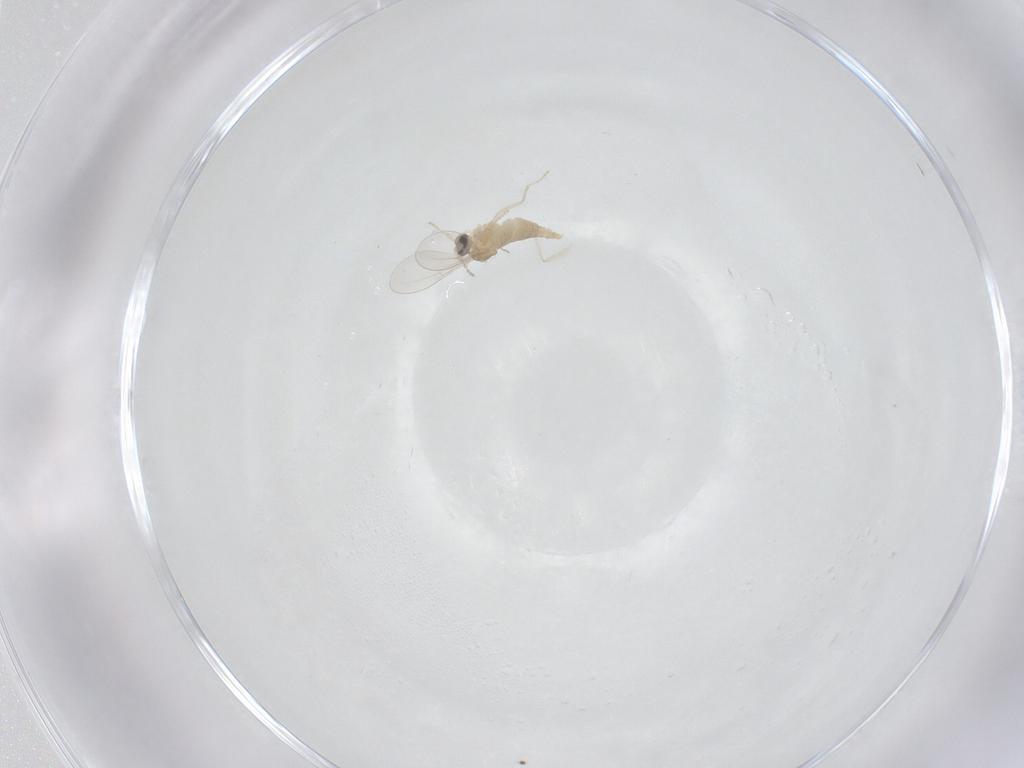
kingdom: Animalia
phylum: Arthropoda
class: Insecta
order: Diptera
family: Cecidomyiidae
